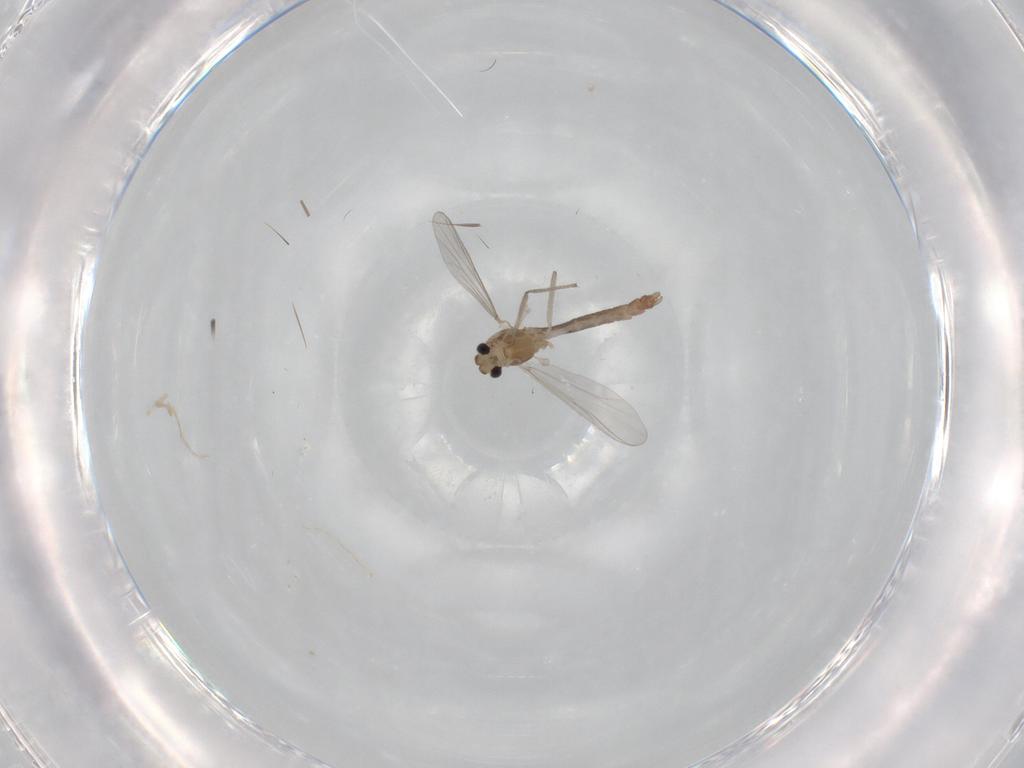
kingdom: Animalia
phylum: Arthropoda
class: Insecta
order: Diptera
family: Chironomidae
